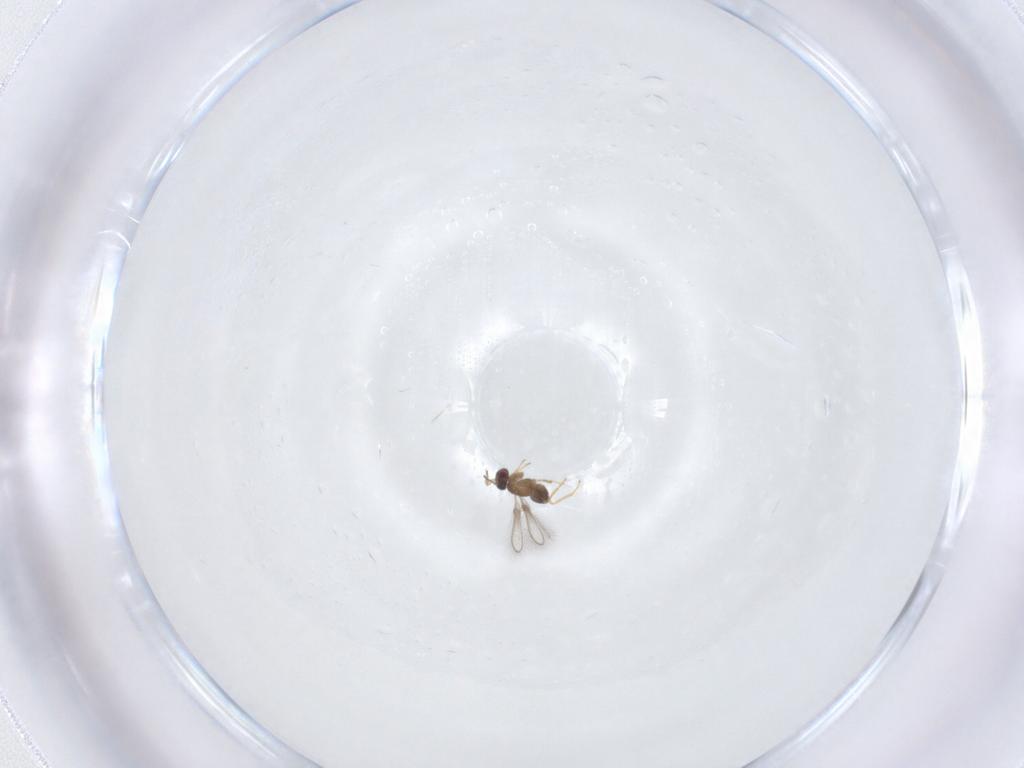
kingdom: Animalia
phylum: Arthropoda
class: Insecta
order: Hymenoptera
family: Mymaridae
